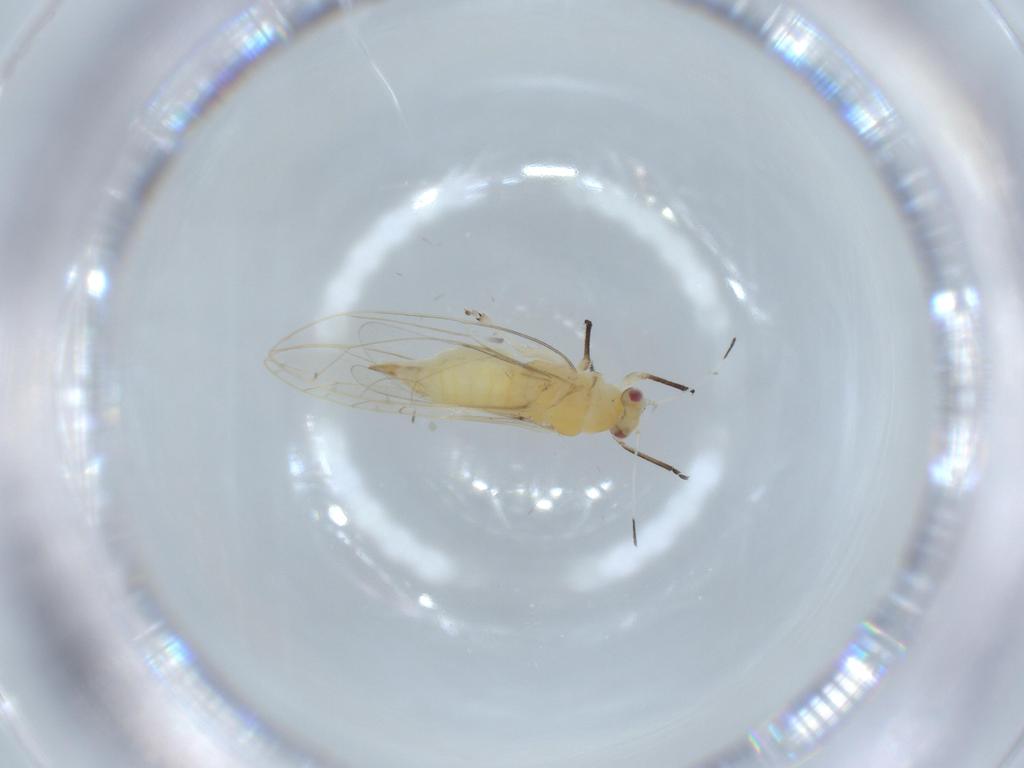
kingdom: Animalia
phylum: Arthropoda
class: Insecta
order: Hemiptera
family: Triozidae
